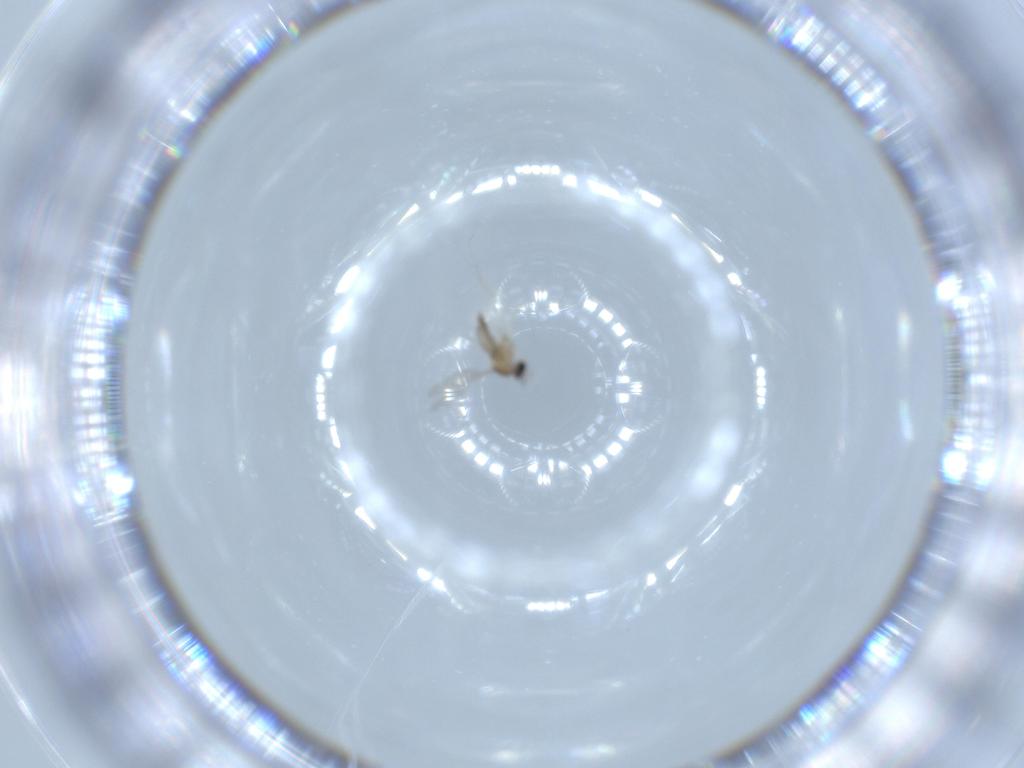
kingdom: Animalia
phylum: Arthropoda
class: Insecta
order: Diptera
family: Cecidomyiidae
